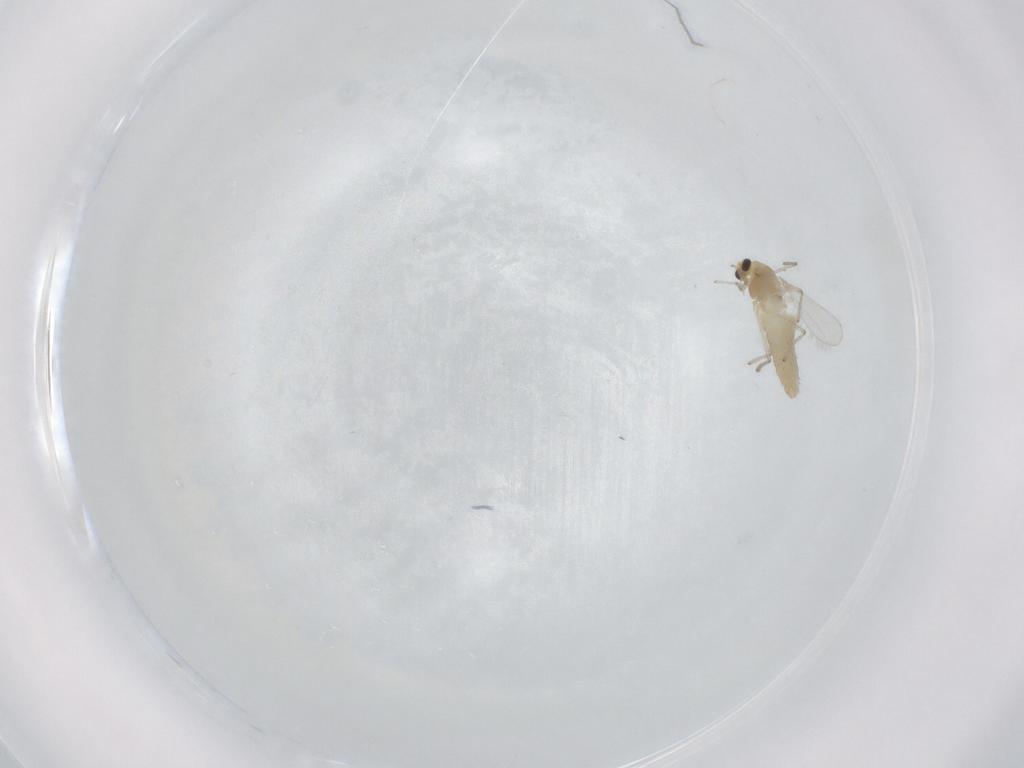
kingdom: Animalia
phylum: Arthropoda
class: Insecta
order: Diptera
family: Chironomidae
